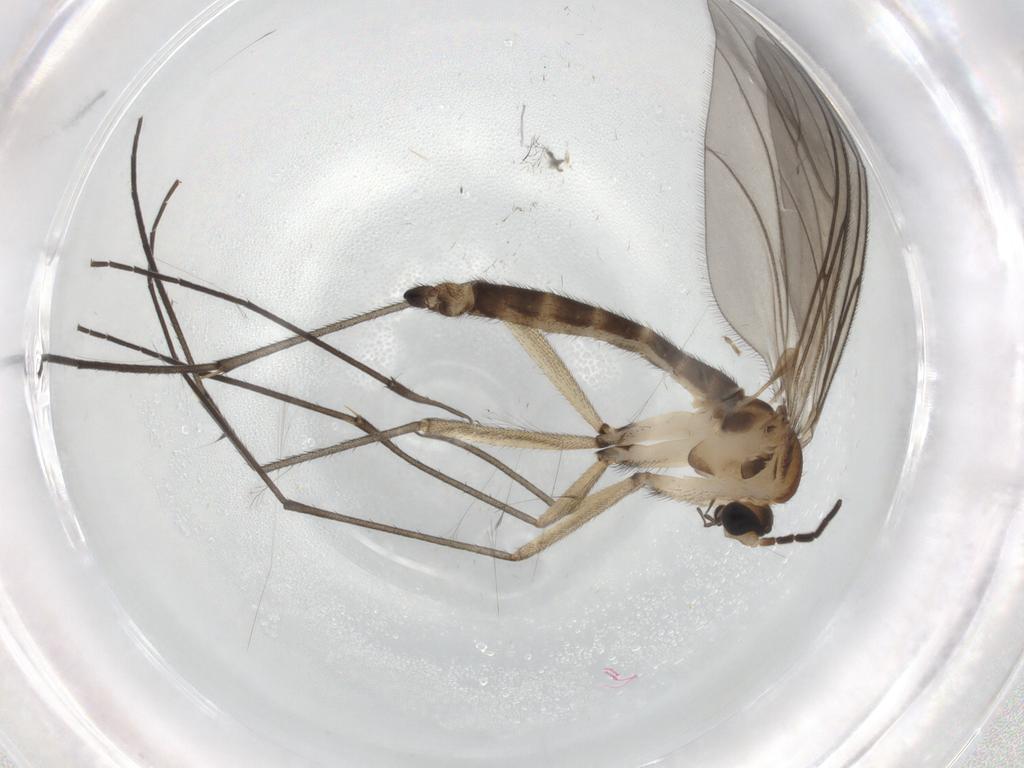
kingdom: Animalia
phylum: Arthropoda
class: Insecta
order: Diptera
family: Sciaridae
